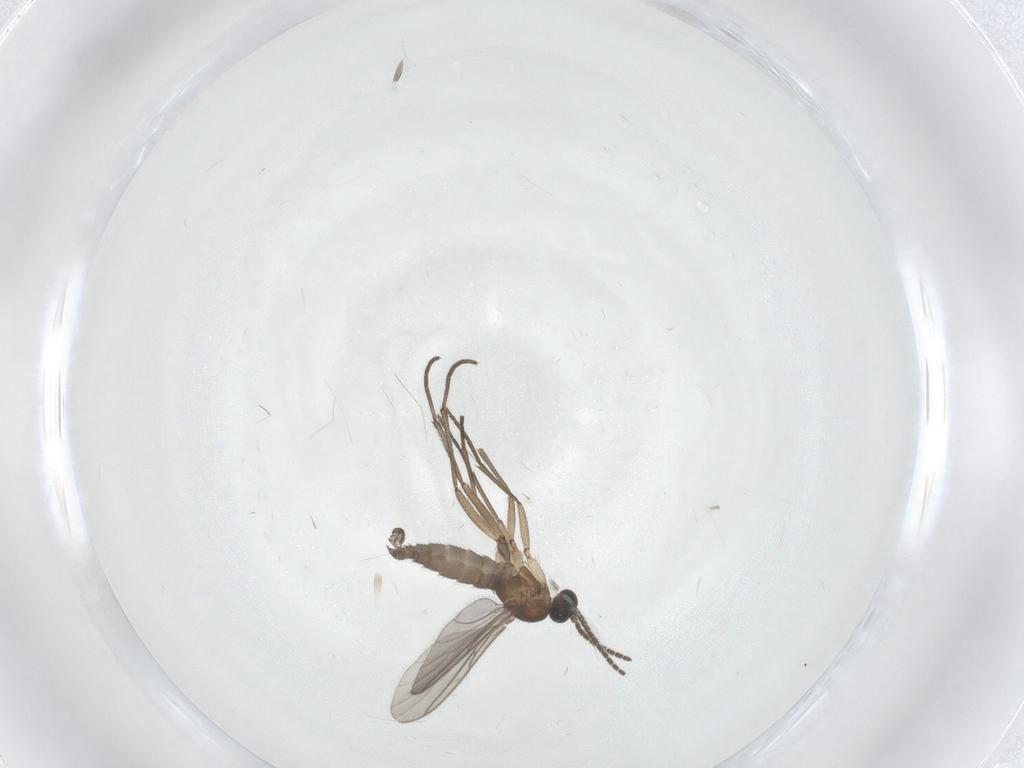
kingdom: Animalia
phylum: Arthropoda
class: Insecta
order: Diptera
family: Sciaridae
